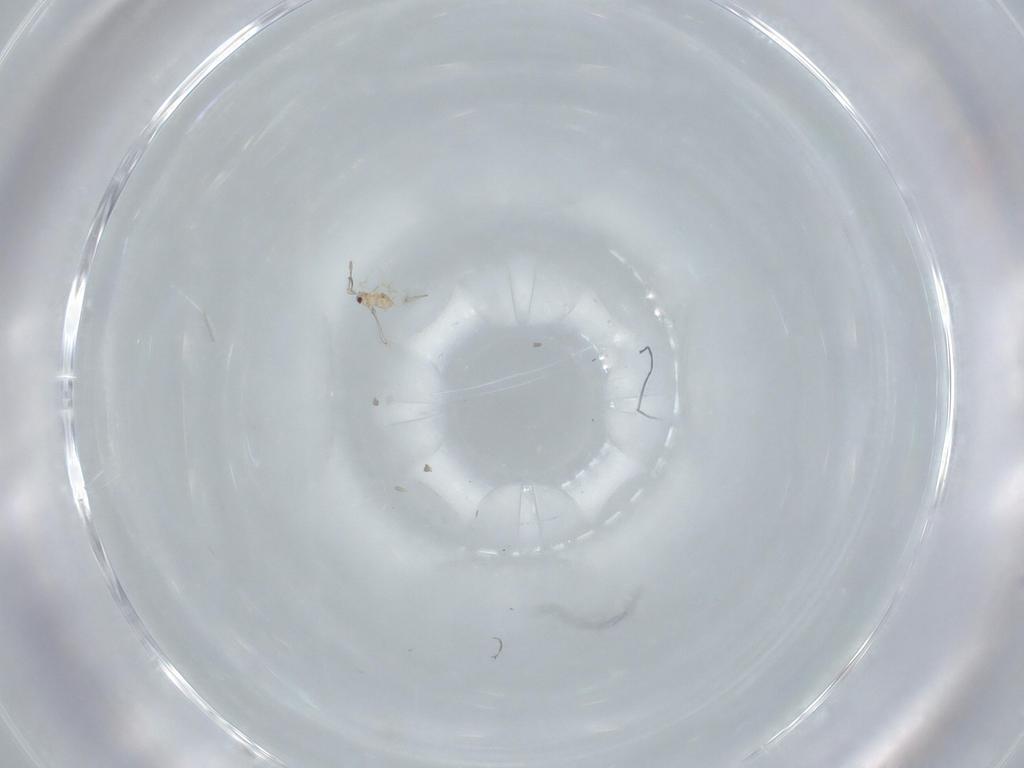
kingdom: Animalia
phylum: Arthropoda
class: Insecta
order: Hymenoptera
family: Mymaridae
